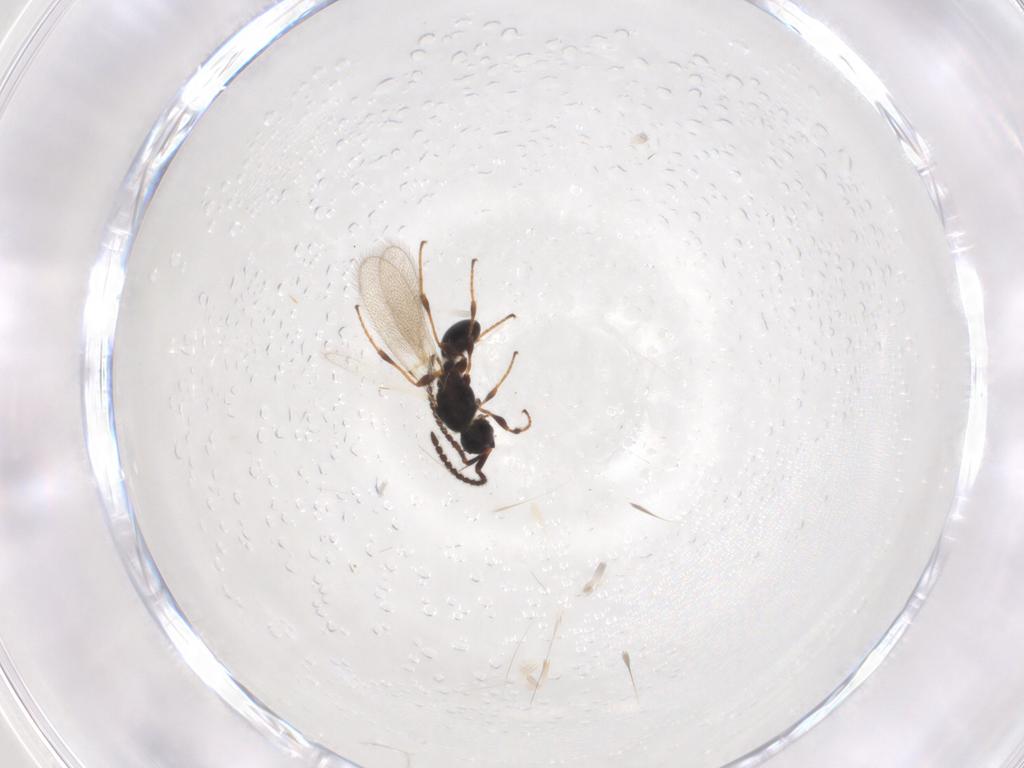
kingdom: Animalia
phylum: Arthropoda
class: Insecta
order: Hymenoptera
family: Diapriidae
